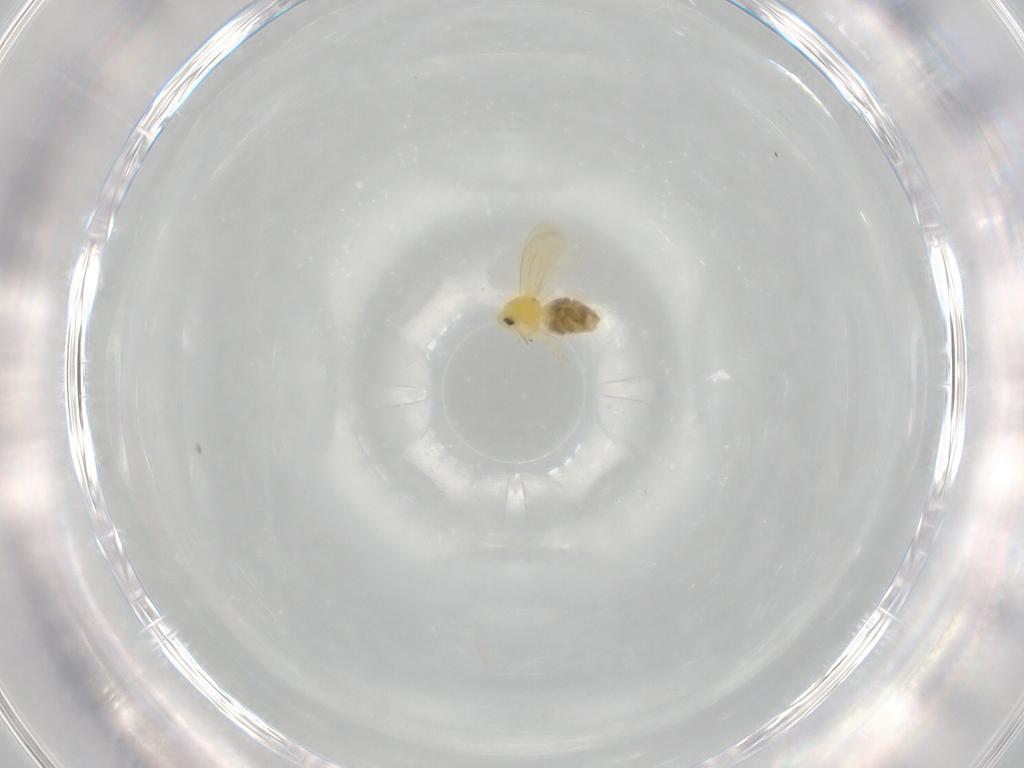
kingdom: Animalia
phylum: Arthropoda
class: Insecta
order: Hemiptera
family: Aleyrodidae
